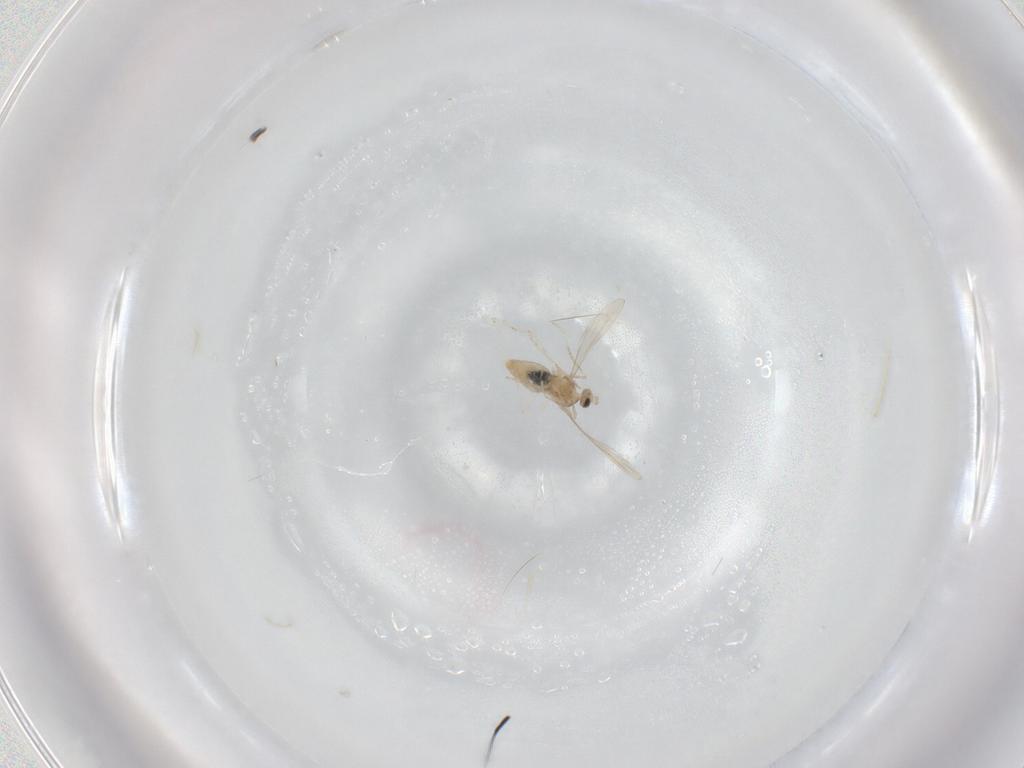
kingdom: Animalia
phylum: Arthropoda
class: Insecta
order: Diptera
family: Cecidomyiidae
